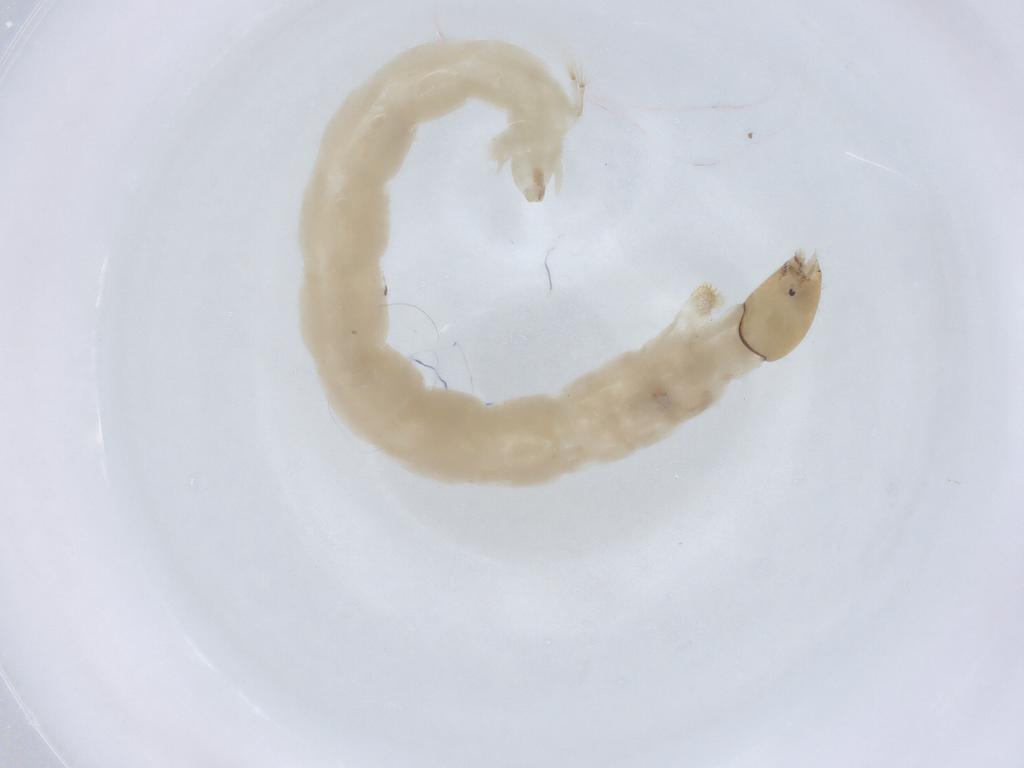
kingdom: Animalia
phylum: Arthropoda
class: Insecta
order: Diptera
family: Chironomidae
